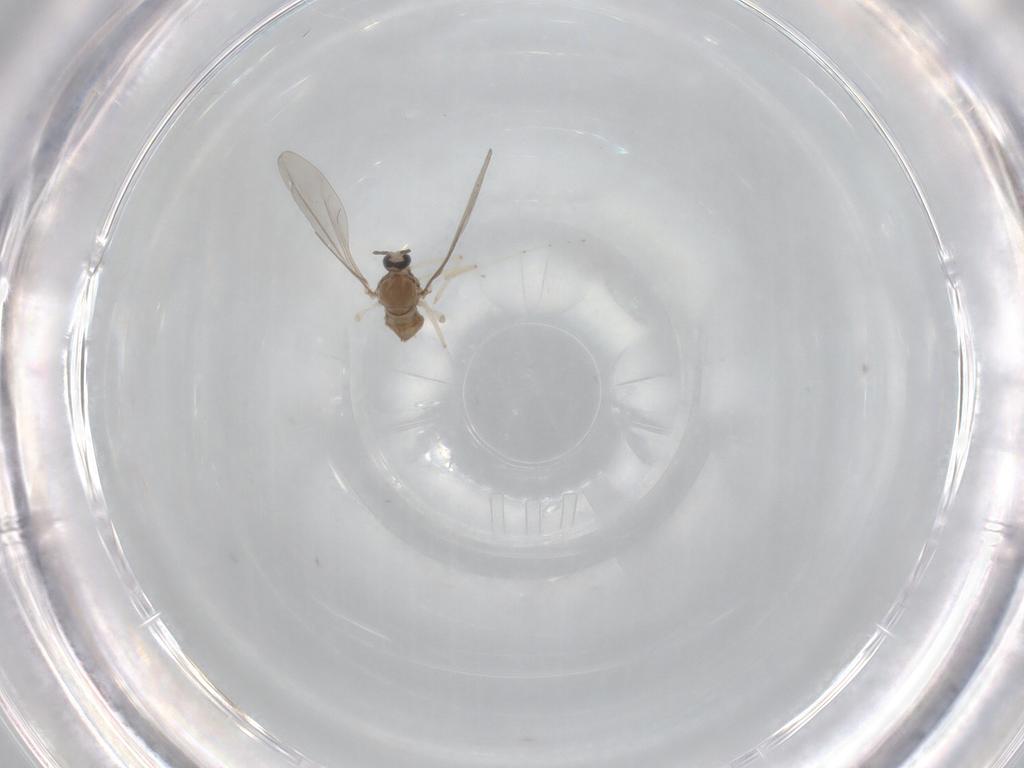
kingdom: Animalia
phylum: Arthropoda
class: Insecta
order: Diptera
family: Cecidomyiidae
